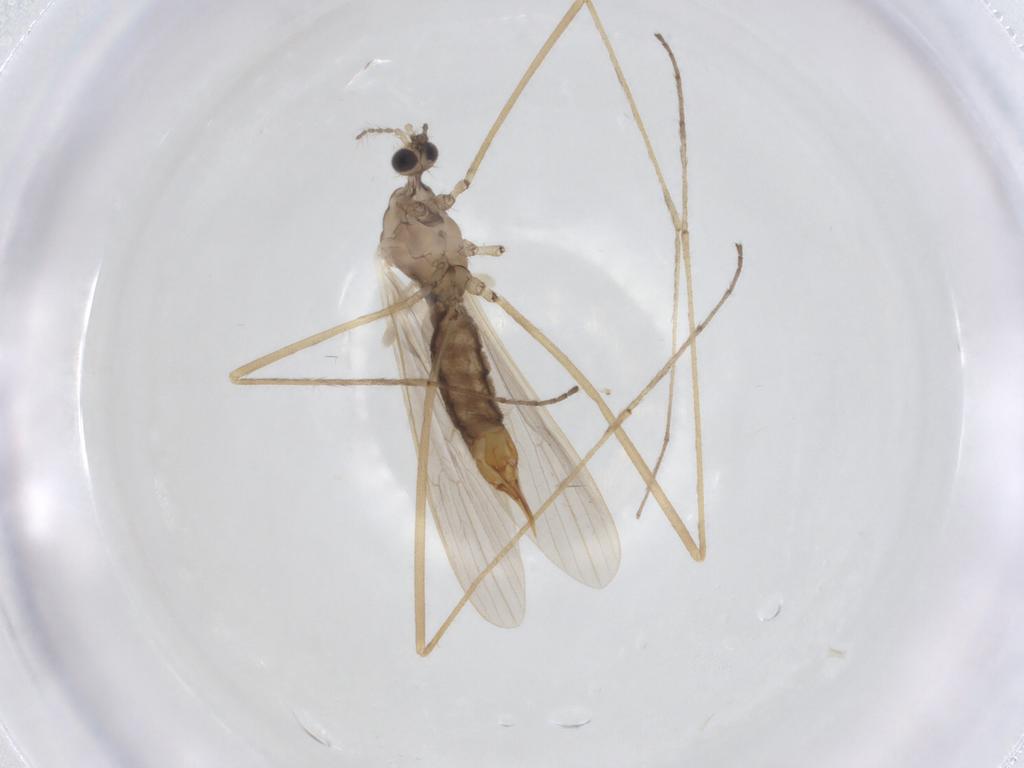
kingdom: Animalia
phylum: Arthropoda
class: Insecta
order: Diptera
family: Limoniidae
